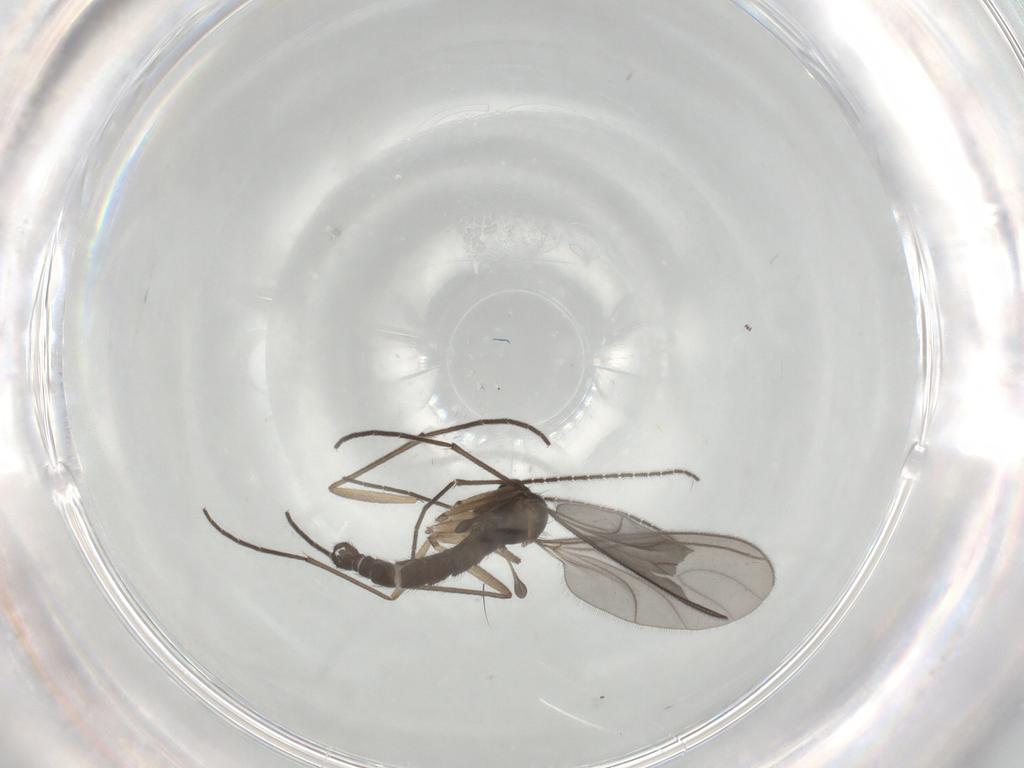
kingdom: Animalia
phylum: Arthropoda
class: Insecta
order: Diptera
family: Sciaridae
